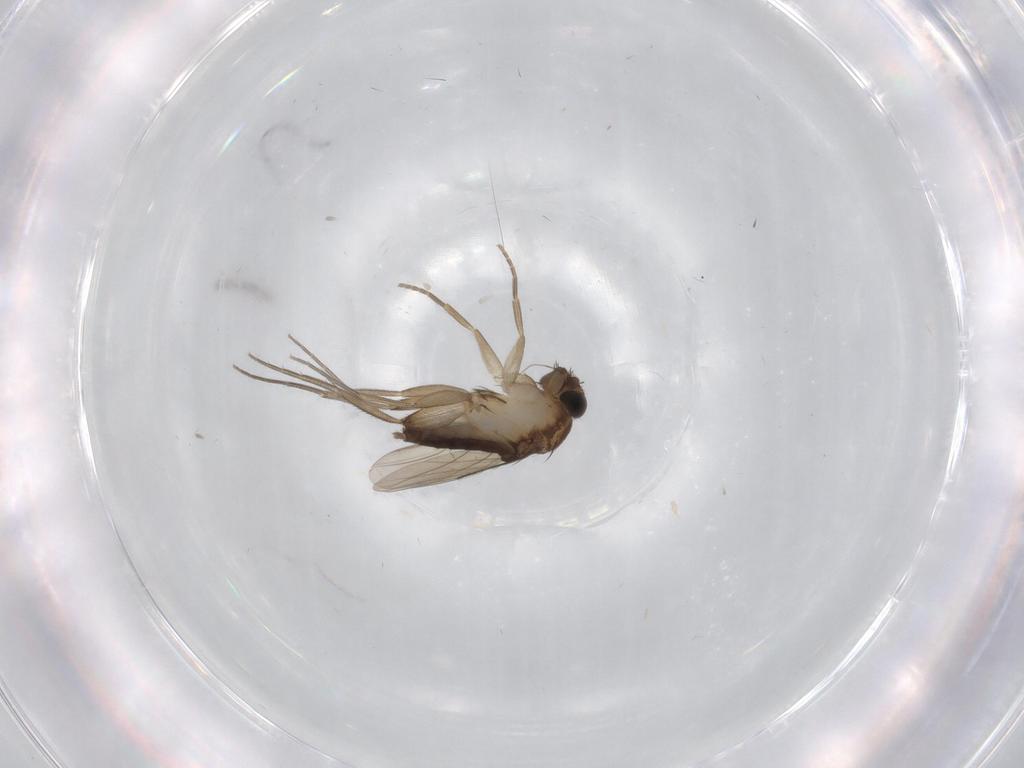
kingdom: Animalia
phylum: Arthropoda
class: Insecta
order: Diptera
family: Phoridae
